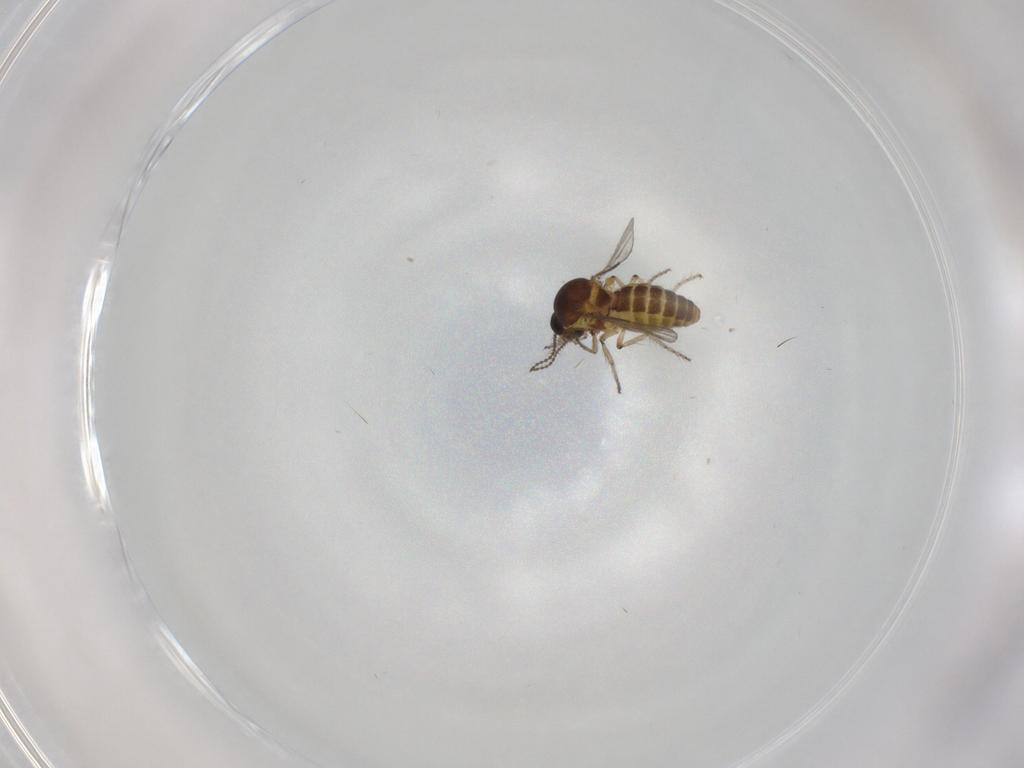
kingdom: Animalia
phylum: Arthropoda
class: Insecta
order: Diptera
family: Ceratopogonidae
